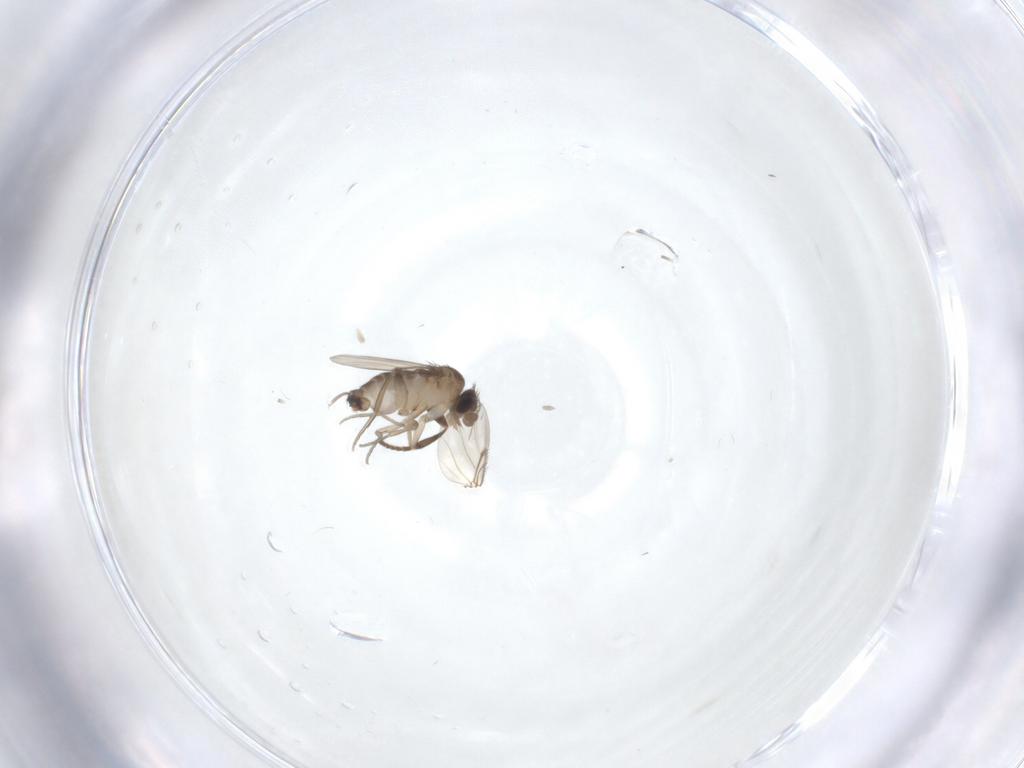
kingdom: Animalia
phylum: Arthropoda
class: Insecta
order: Diptera
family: Phoridae
